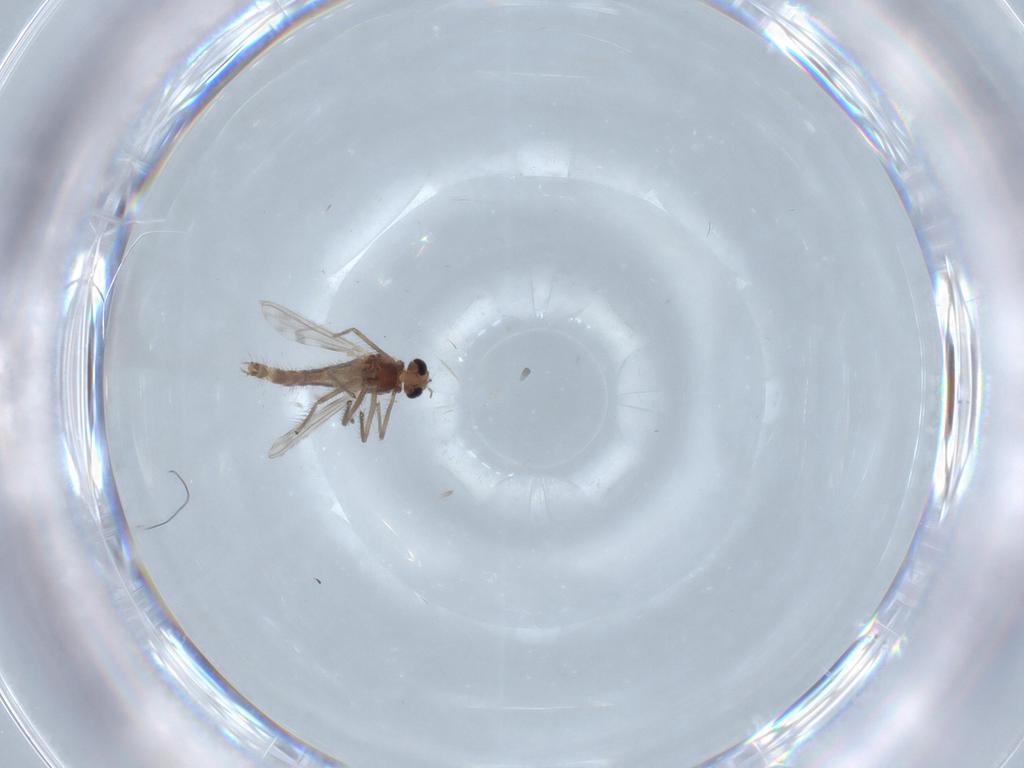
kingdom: Animalia
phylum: Arthropoda
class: Insecta
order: Diptera
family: Chironomidae
